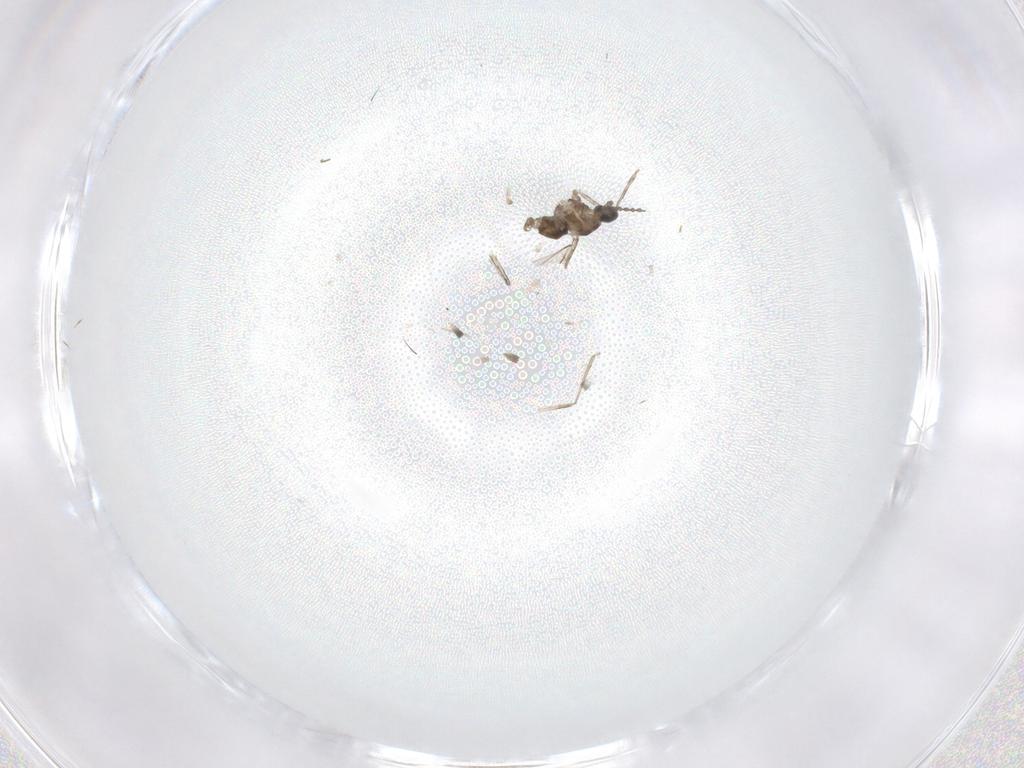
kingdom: Animalia
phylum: Arthropoda
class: Insecta
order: Diptera
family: Cecidomyiidae
